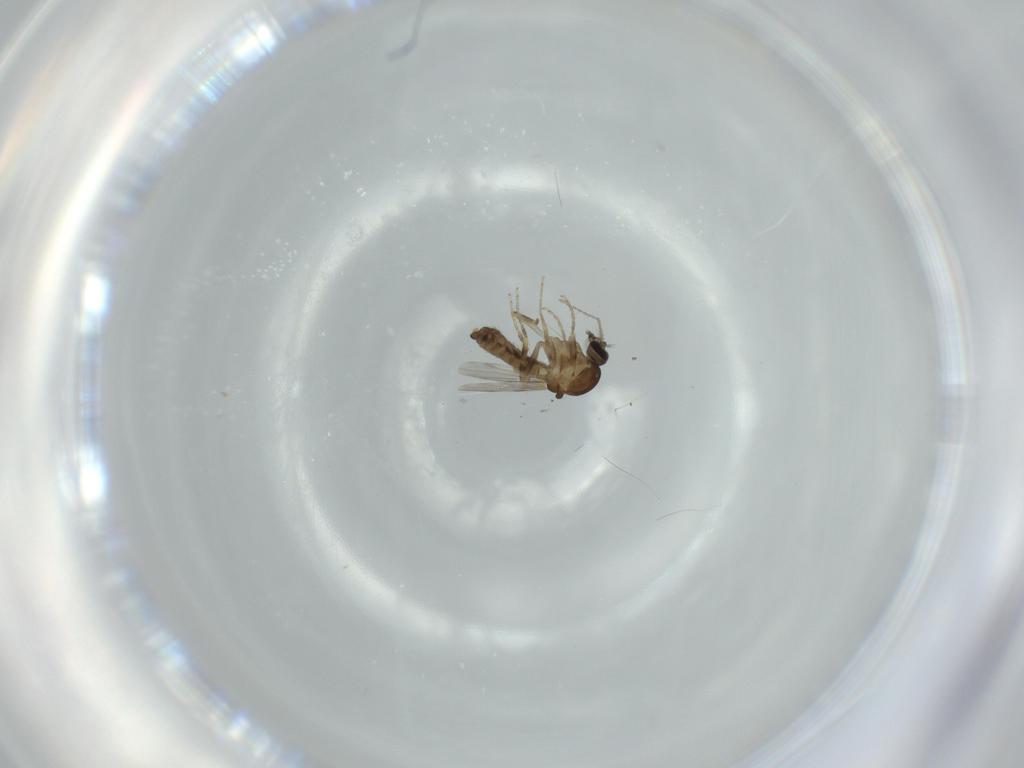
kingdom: Animalia
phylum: Arthropoda
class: Insecta
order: Diptera
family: Ceratopogonidae
